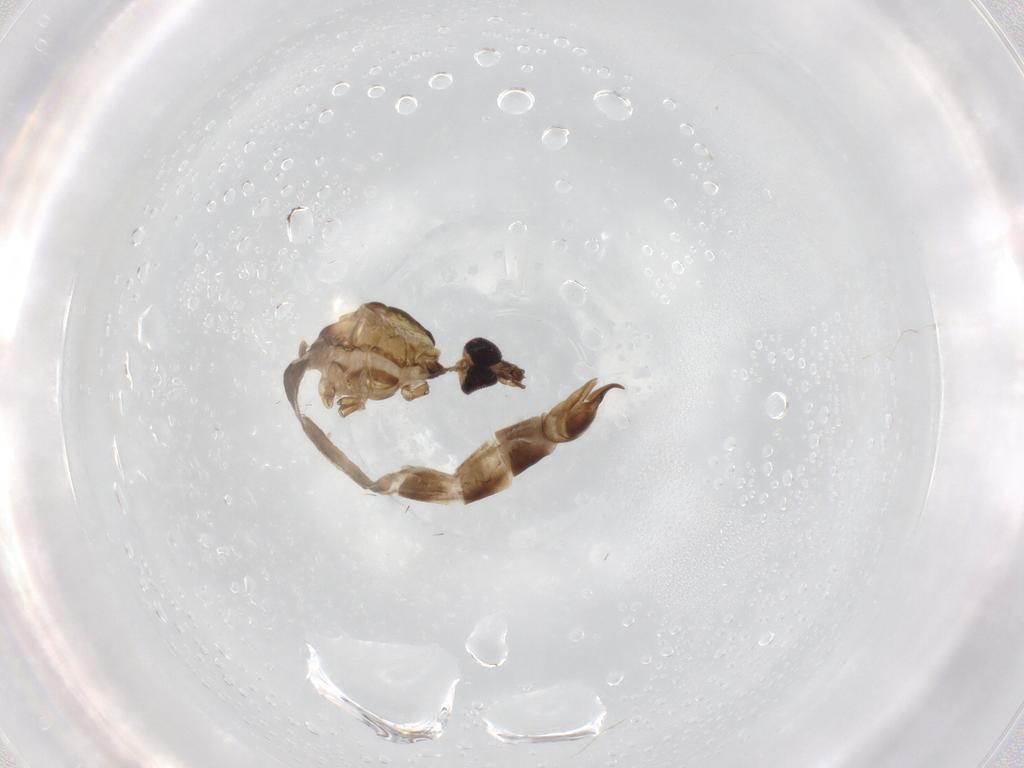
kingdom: Animalia
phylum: Arthropoda
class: Insecta
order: Diptera
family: Limoniidae
